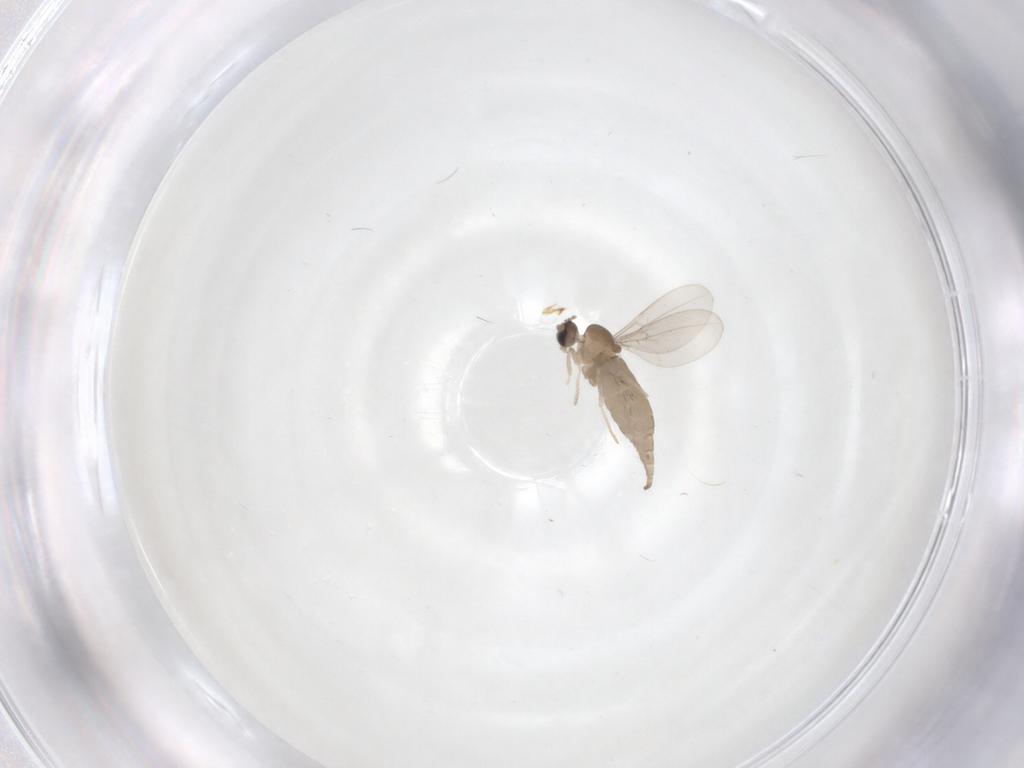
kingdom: Animalia
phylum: Arthropoda
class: Insecta
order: Diptera
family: Cecidomyiidae
